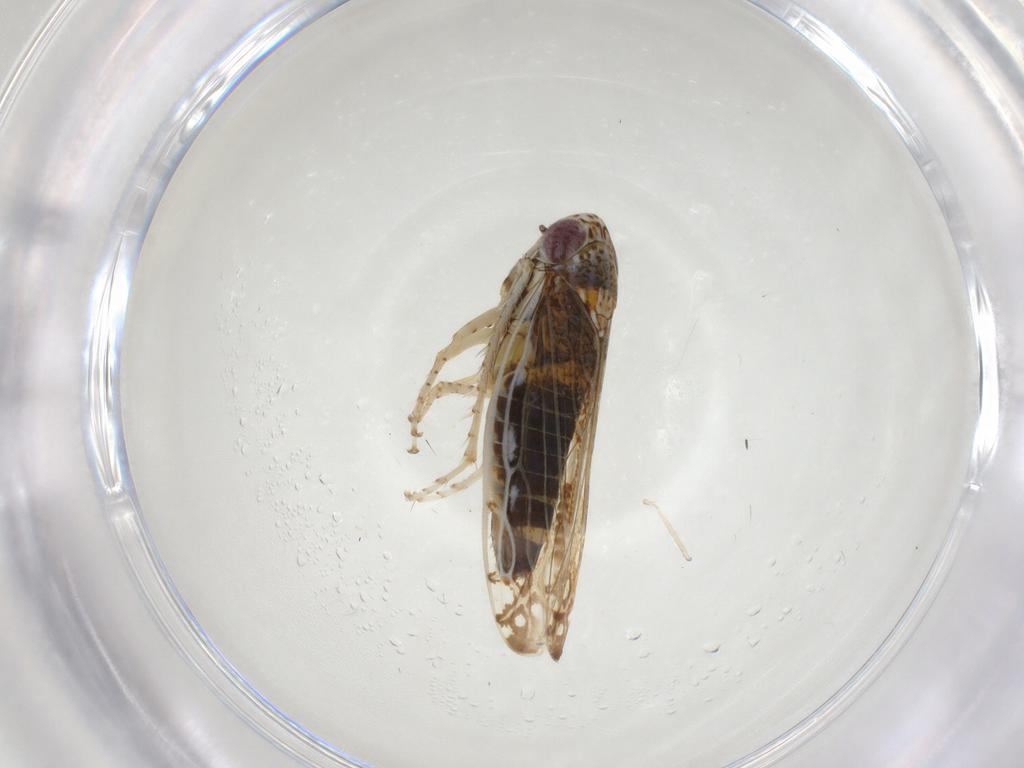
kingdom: Animalia
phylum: Arthropoda
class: Insecta
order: Hemiptera
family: Cicadellidae
